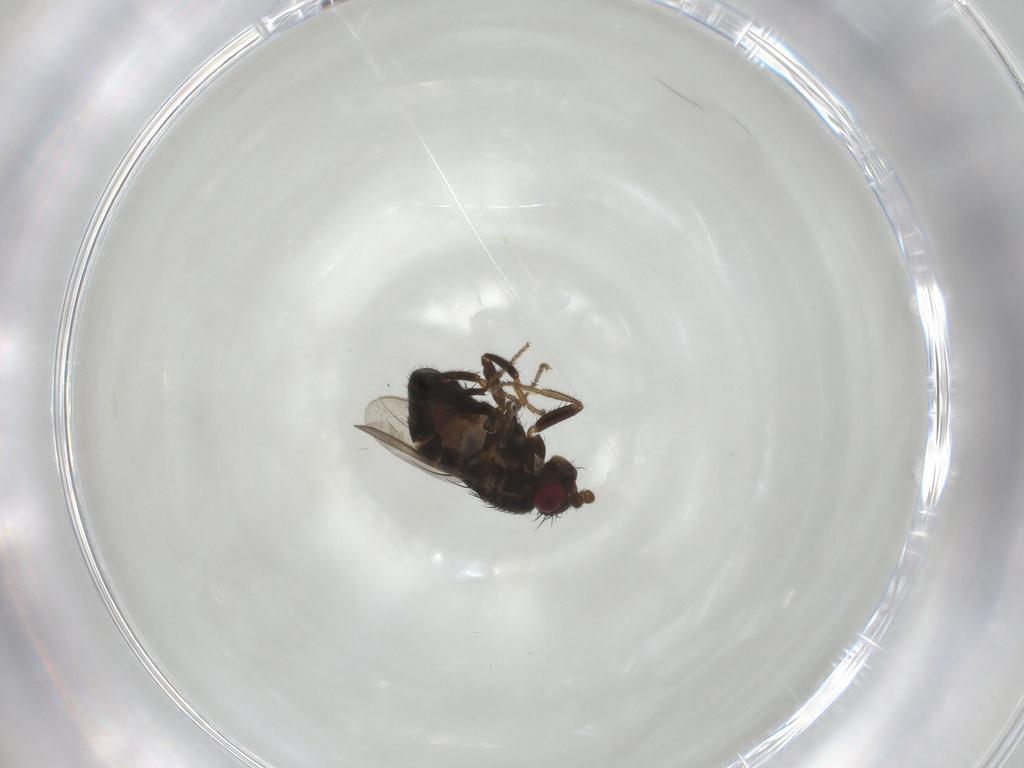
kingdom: Animalia
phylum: Arthropoda
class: Insecta
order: Diptera
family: Sphaeroceridae
